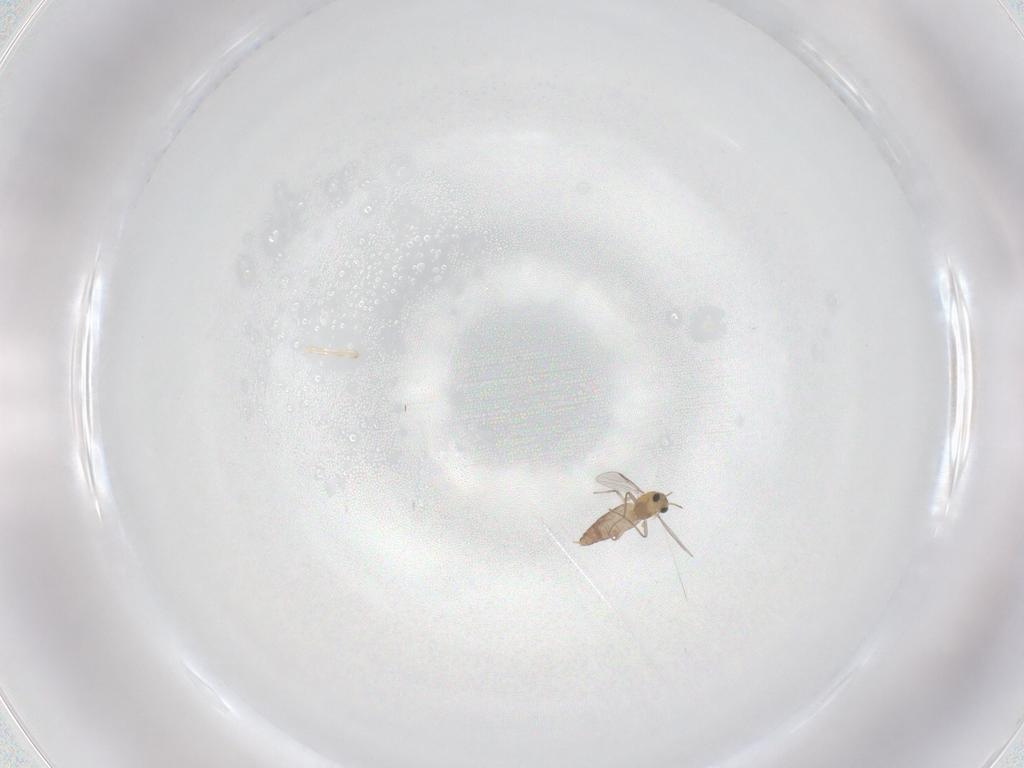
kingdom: Animalia
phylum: Arthropoda
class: Insecta
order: Diptera
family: Chironomidae
